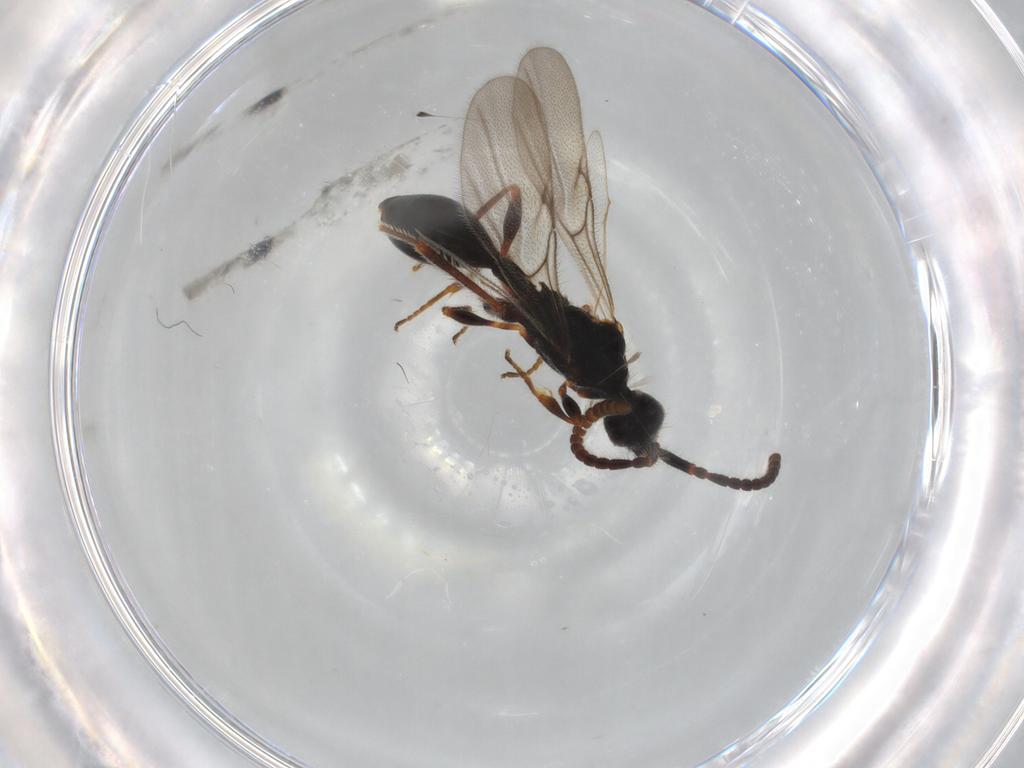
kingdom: Animalia
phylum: Arthropoda
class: Insecta
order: Hymenoptera
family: Diapriidae
